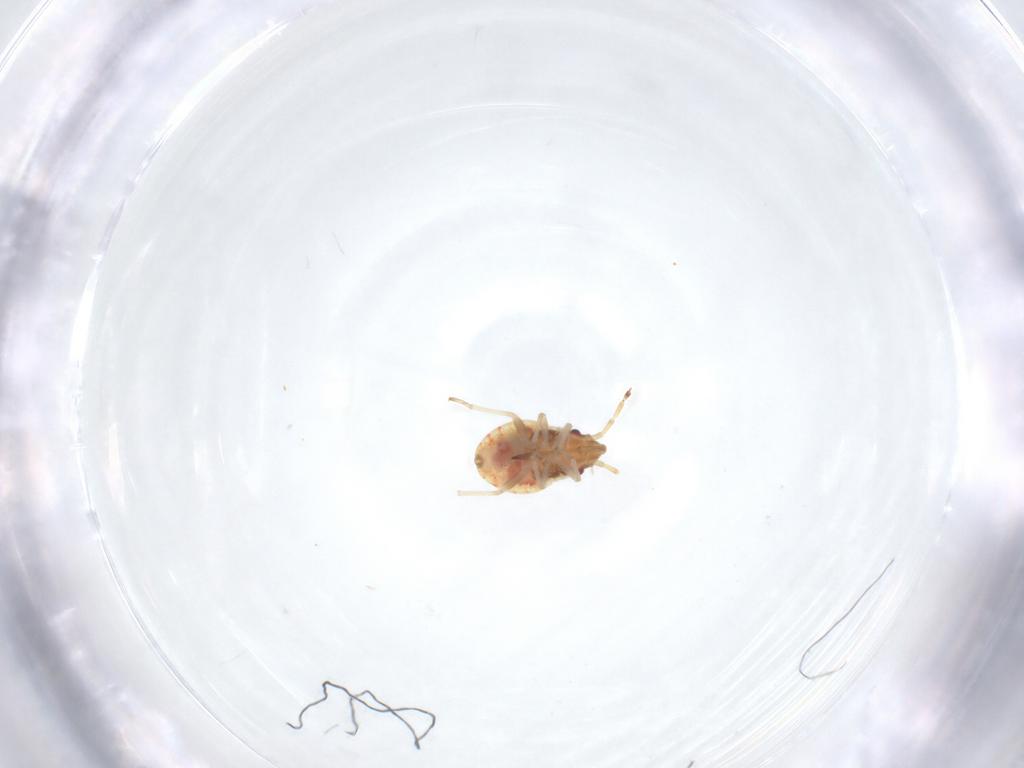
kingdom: Animalia
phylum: Arthropoda
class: Insecta
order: Hemiptera
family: Lygaeidae
